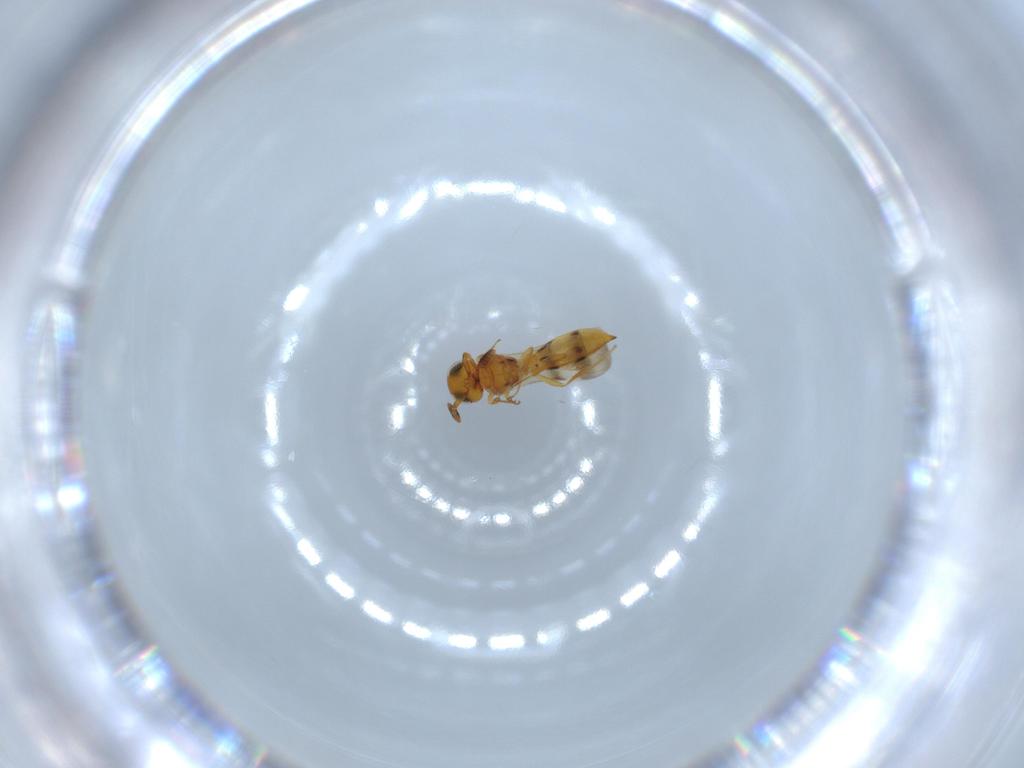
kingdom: Animalia
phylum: Arthropoda
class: Insecta
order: Hymenoptera
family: Scelionidae
